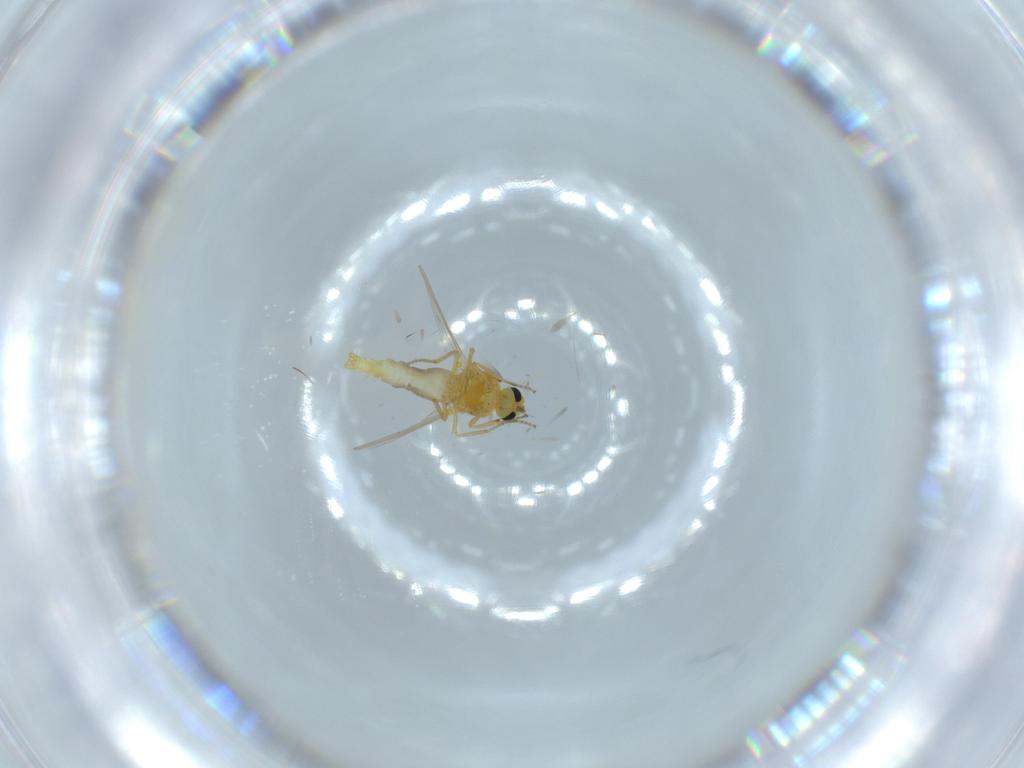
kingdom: Animalia
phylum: Arthropoda
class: Insecta
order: Diptera
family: Ceratopogonidae
